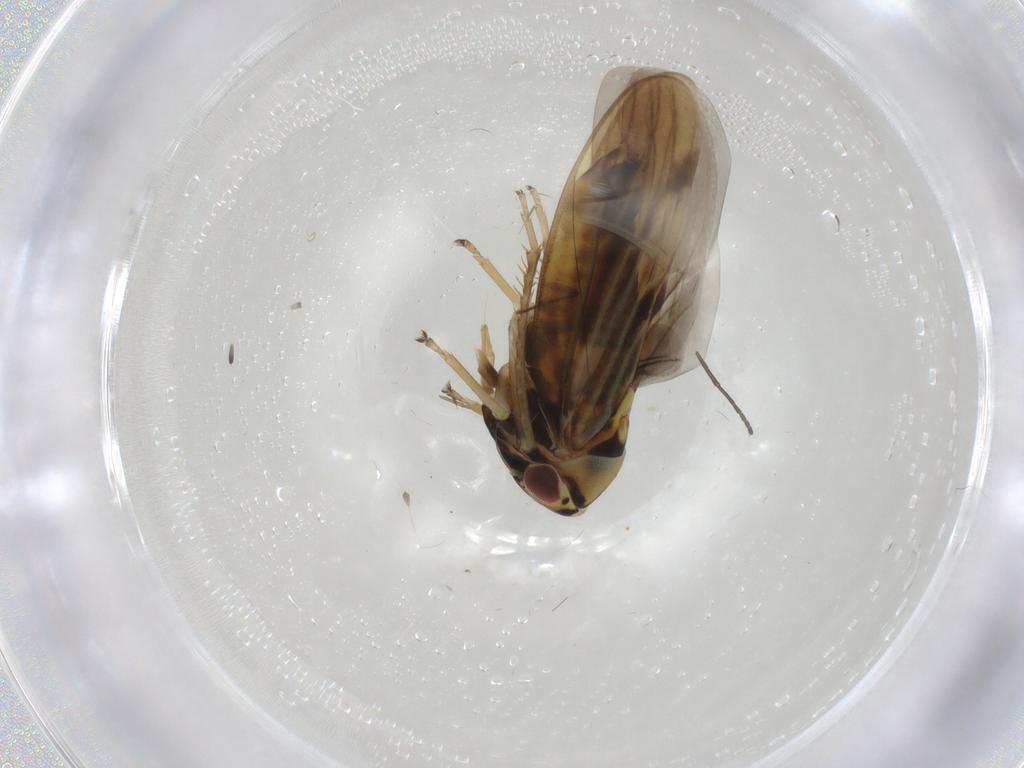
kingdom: Animalia
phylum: Arthropoda
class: Insecta
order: Hemiptera
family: Cicadellidae
